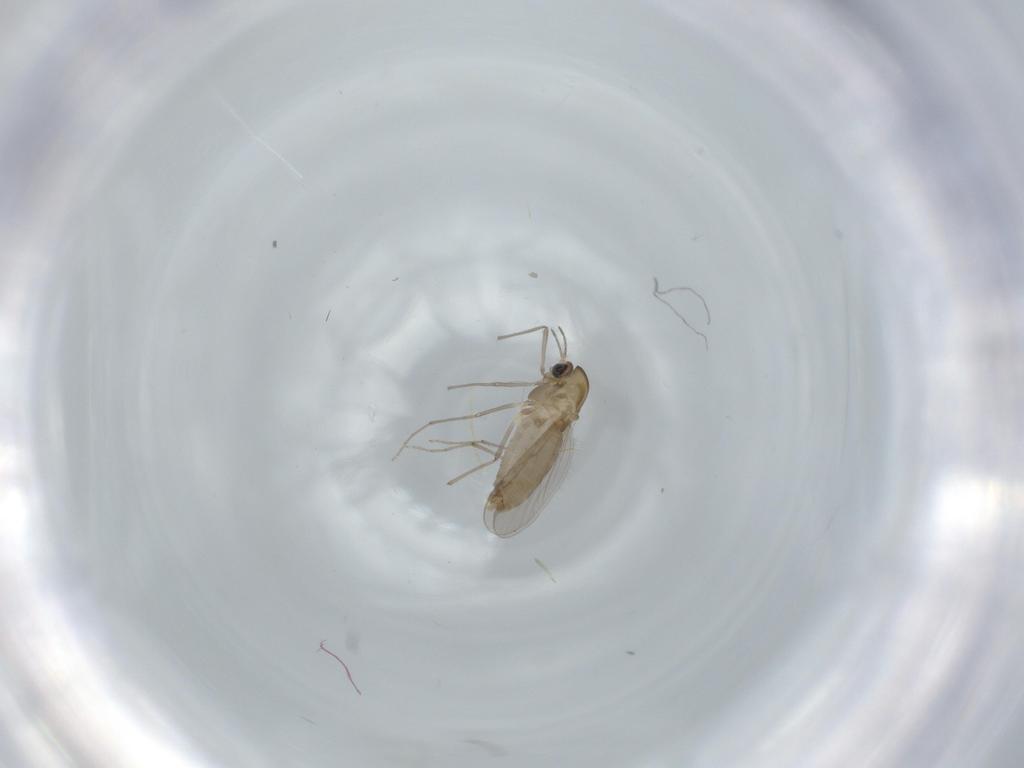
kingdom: Animalia
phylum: Arthropoda
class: Insecta
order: Diptera
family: Chironomidae
